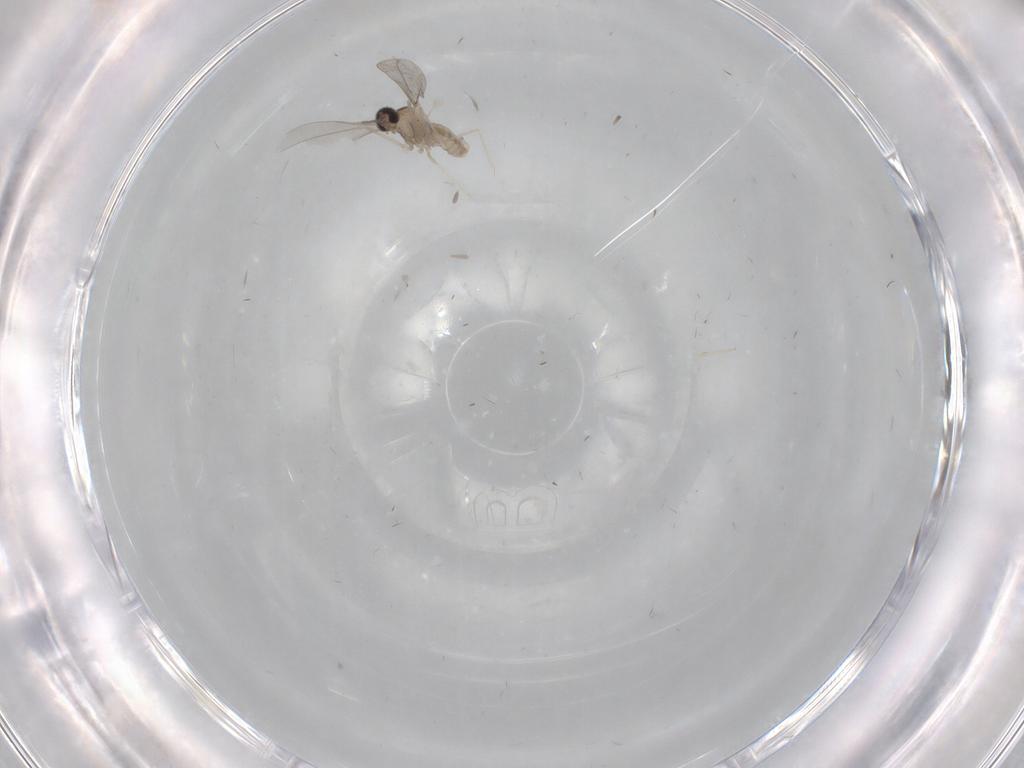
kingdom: Animalia
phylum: Arthropoda
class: Insecta
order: Diptera
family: Cecidomyiidae
